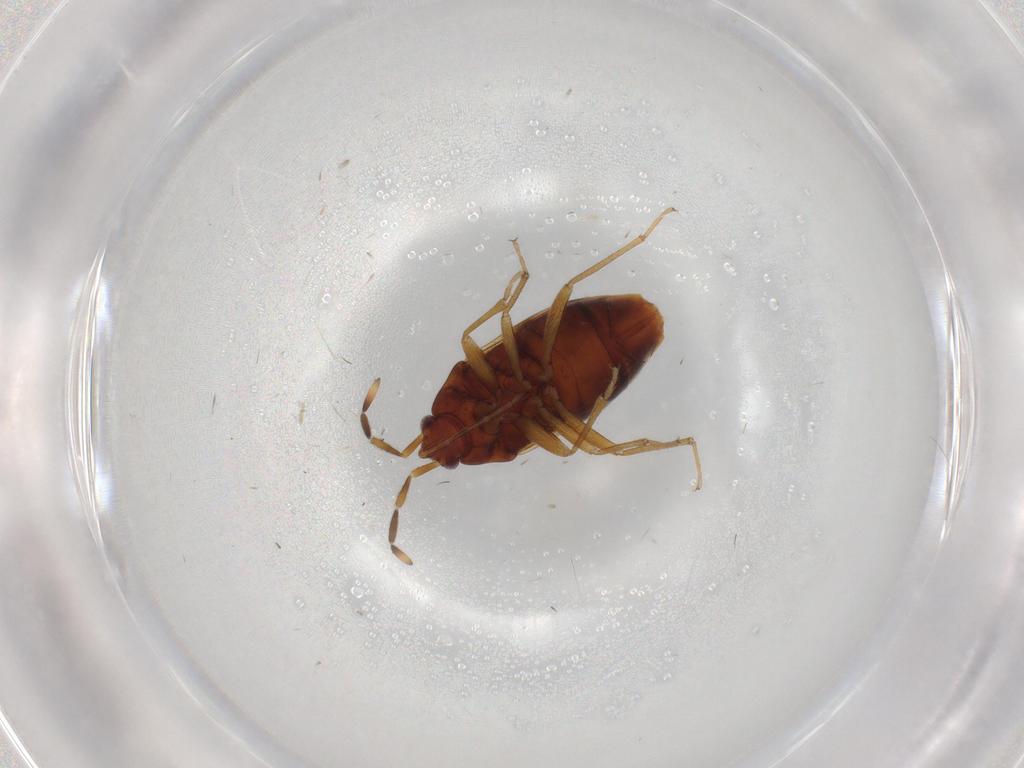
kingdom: Animalia
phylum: Arthropoda
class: Insecta
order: Hemiptera
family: Rhyparochromidae
